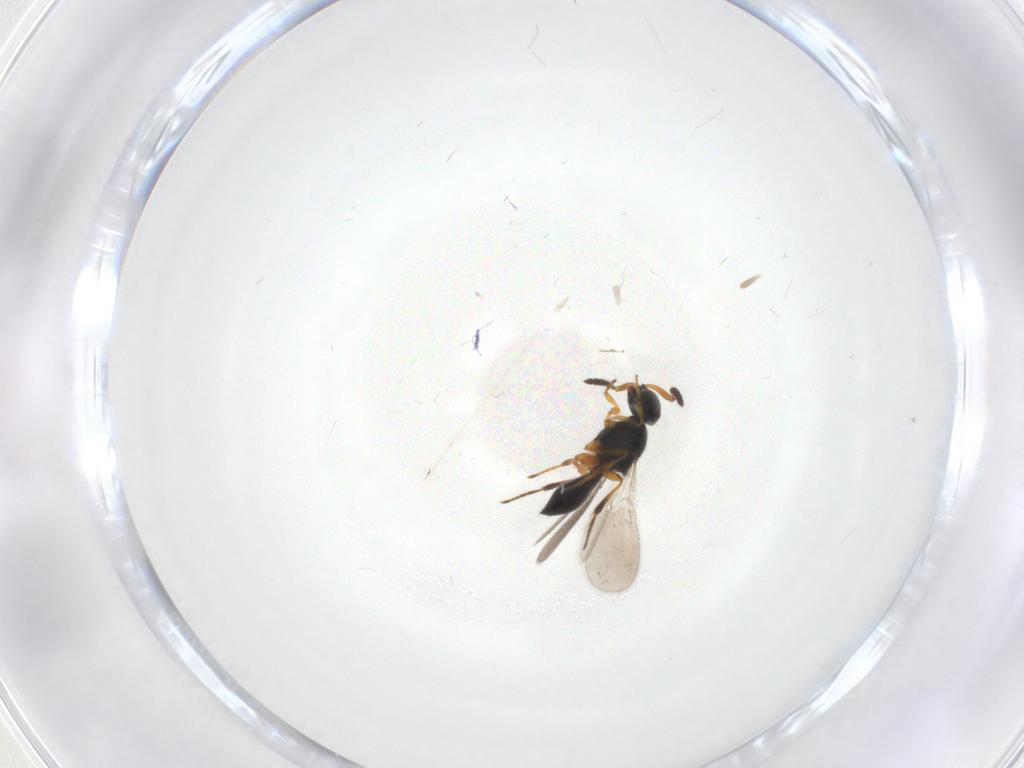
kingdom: Animalia
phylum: Arthropoda
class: Insecta
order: Hymenoptera
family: Platygastridae
